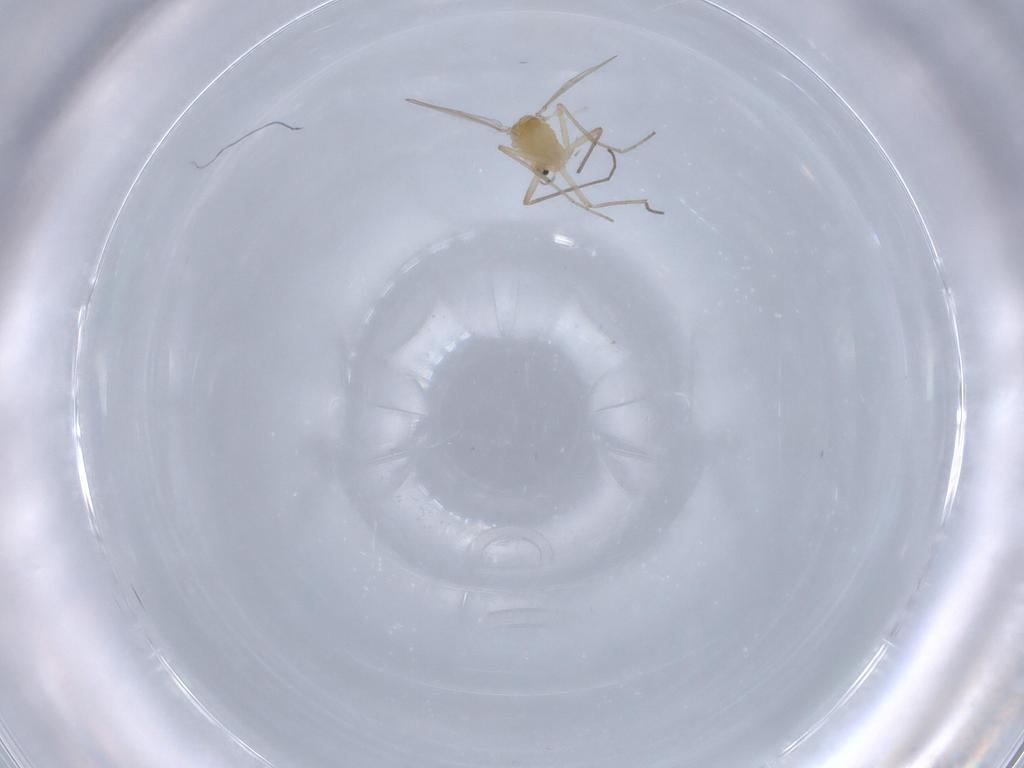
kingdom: Animalia
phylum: Arthropoda
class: Insecta
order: Diptera
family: Chironomidae
